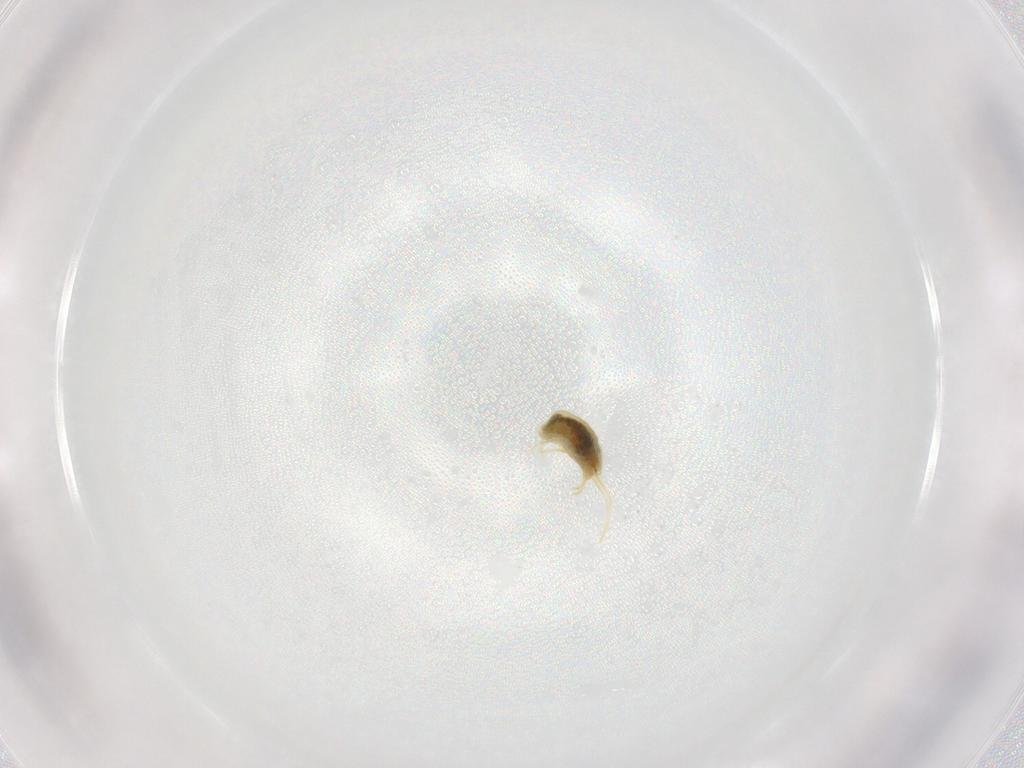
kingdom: Animalia
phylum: Arthropoda
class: Arachnida
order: Trombidiformes
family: Tetranychidae
